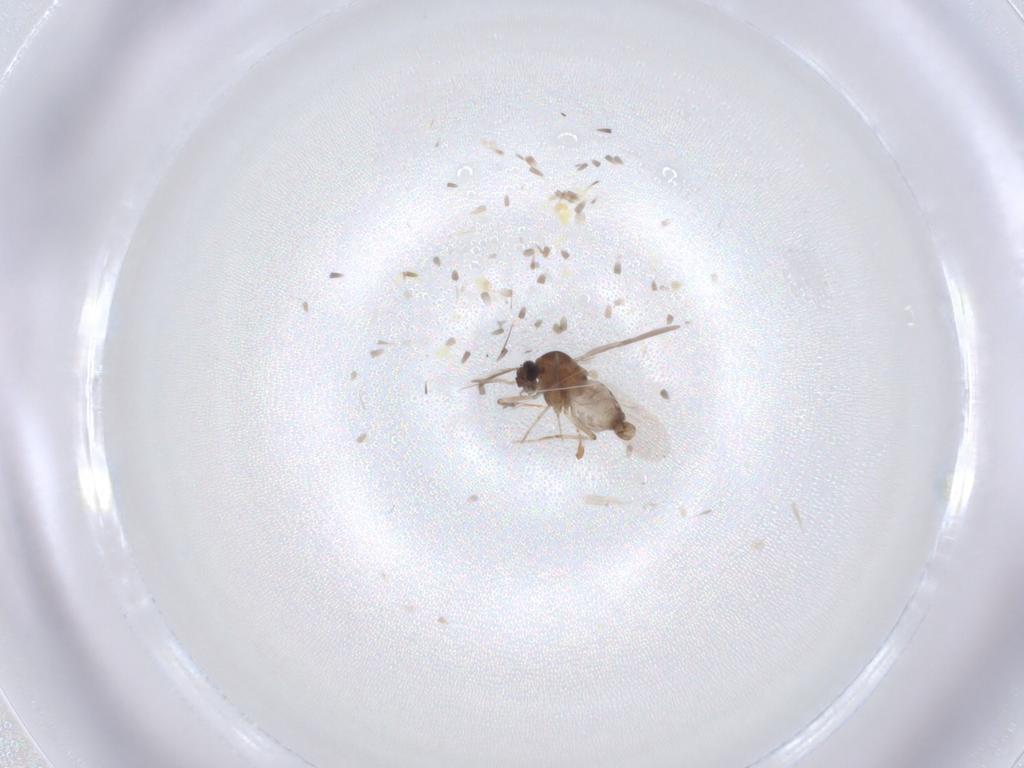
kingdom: Animalia
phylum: Arthropoda
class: Insecta
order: Diptera
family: Ceratopogonidae
